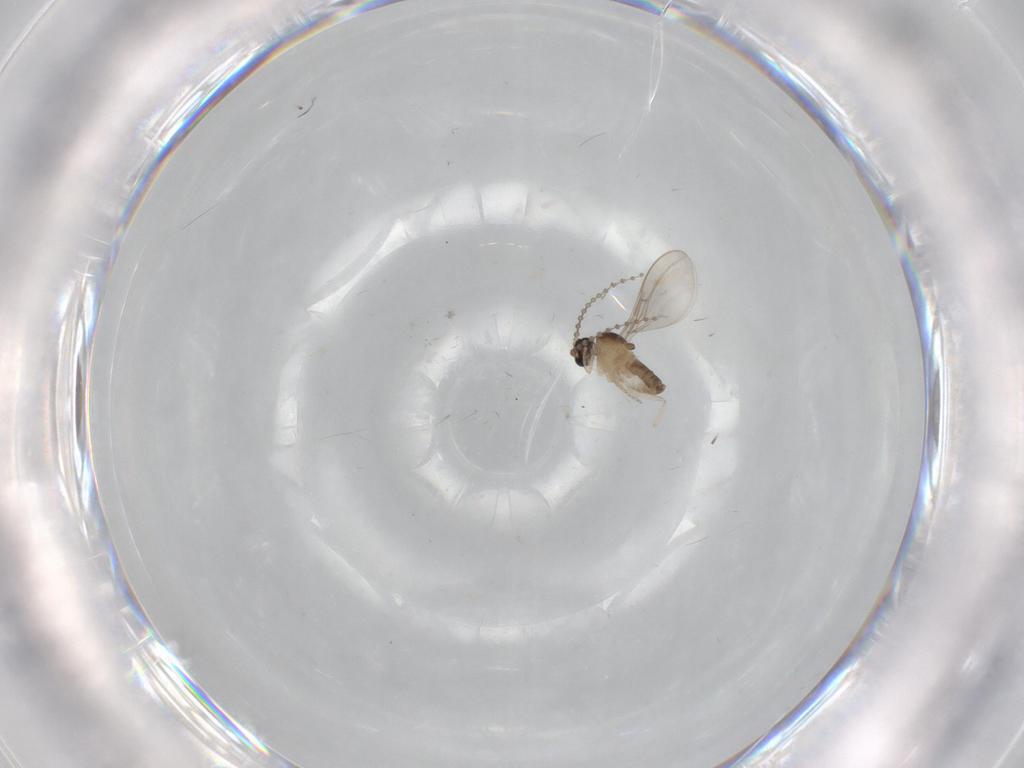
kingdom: Animalia
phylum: Arthropoda
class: Insecta
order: Diptera
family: Cecidomyiidae
